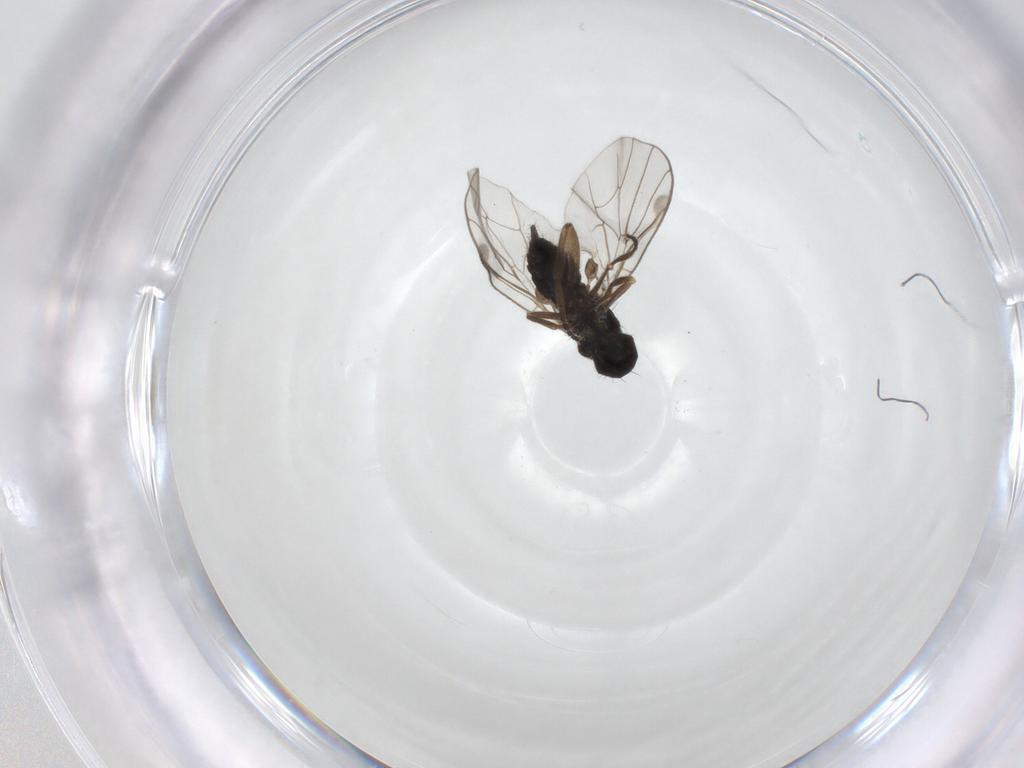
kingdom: Animalia
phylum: Arthropoda
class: Insecta
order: Diptera
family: Hybotidae
